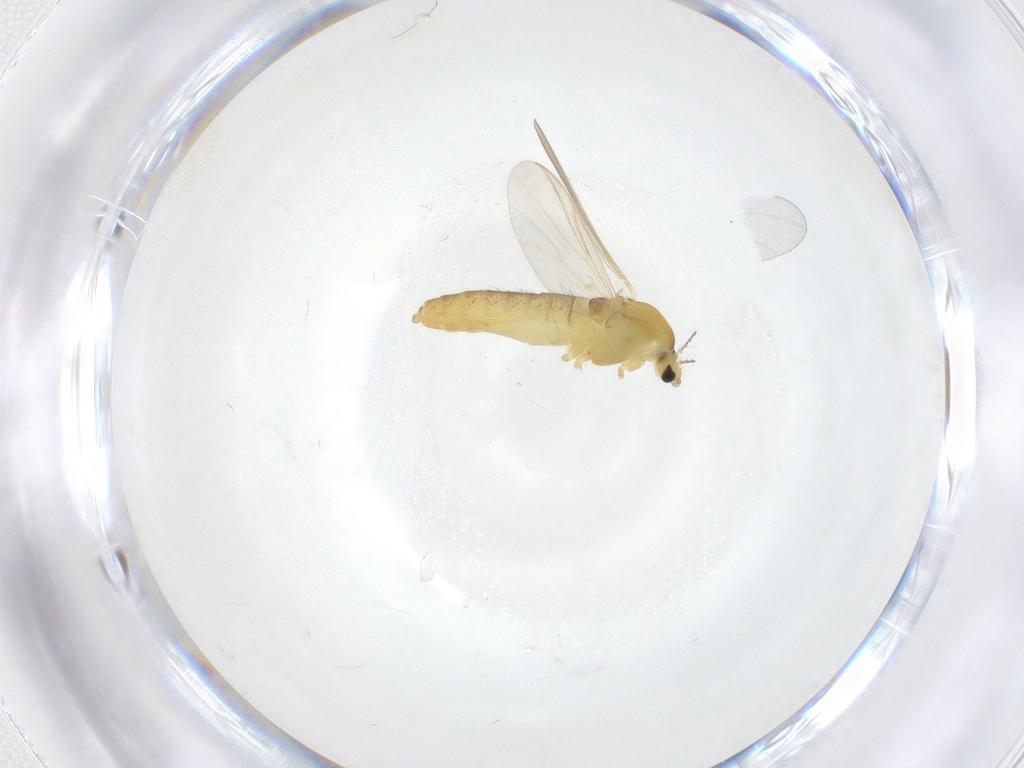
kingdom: Animalia
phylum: Arthropoda
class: Insecta
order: Diptera
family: Chironomidae
